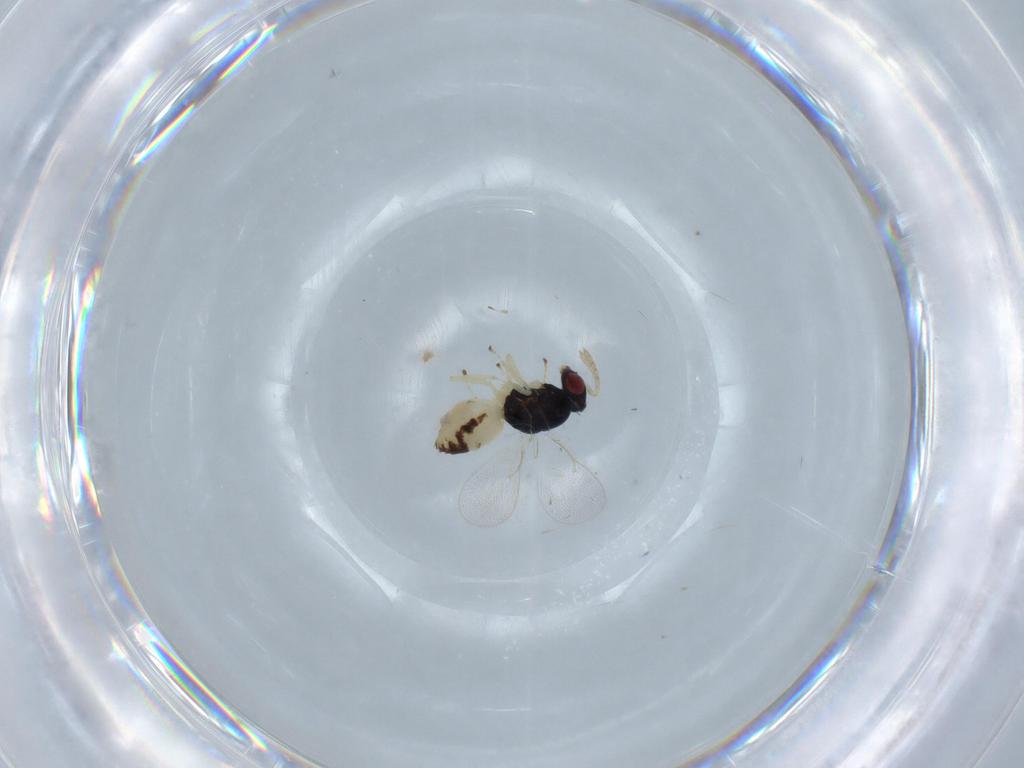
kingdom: Animalia
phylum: Arthropoda
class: Insecta
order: Hymenoptera
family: Eulophidae
